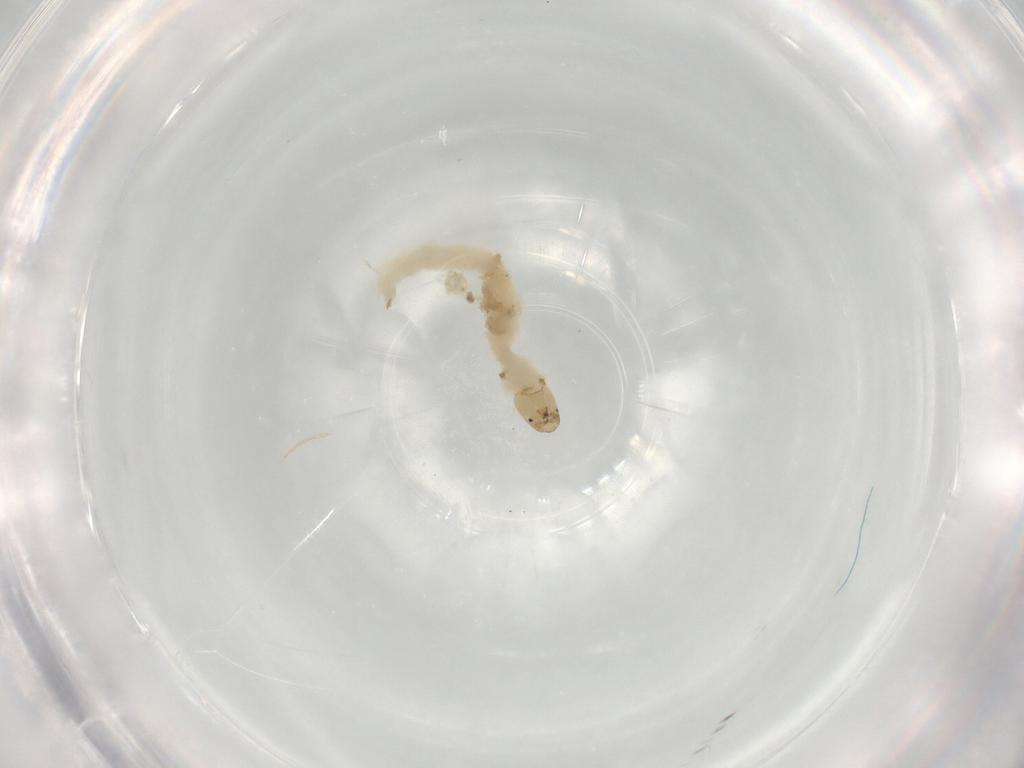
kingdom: Animalia
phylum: Arthropoda
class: Insecta
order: Diptera
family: Chironomidae
